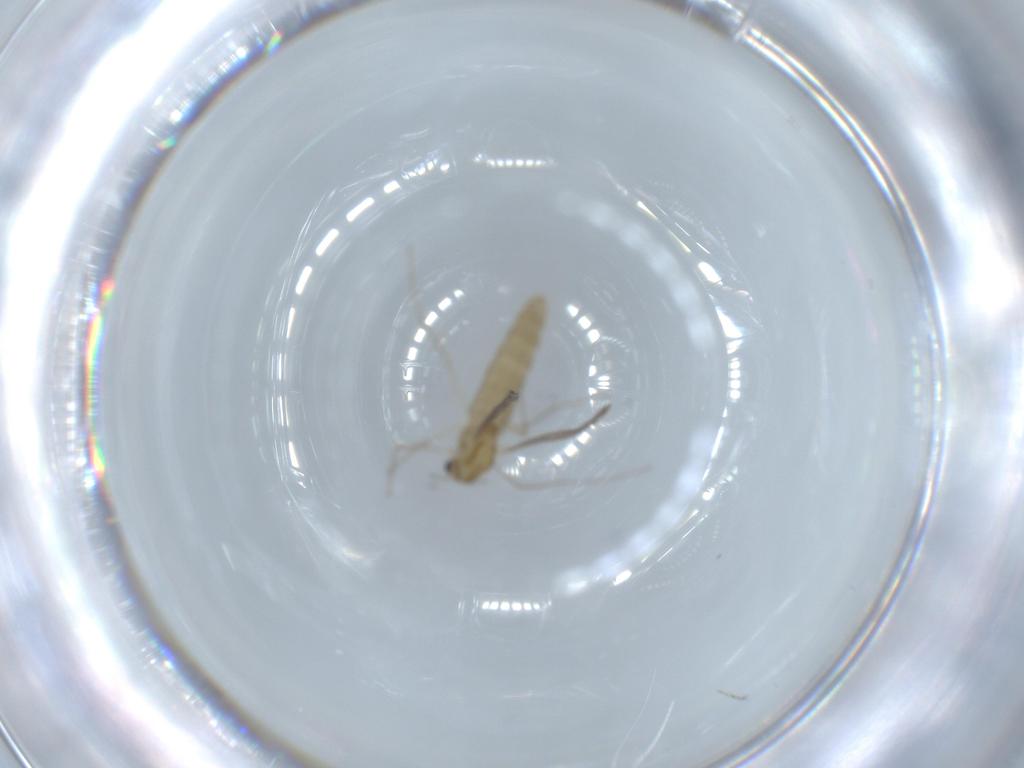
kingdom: Animalia
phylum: Arthropoda
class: Insecta
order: Diptera
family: Chironomidae
